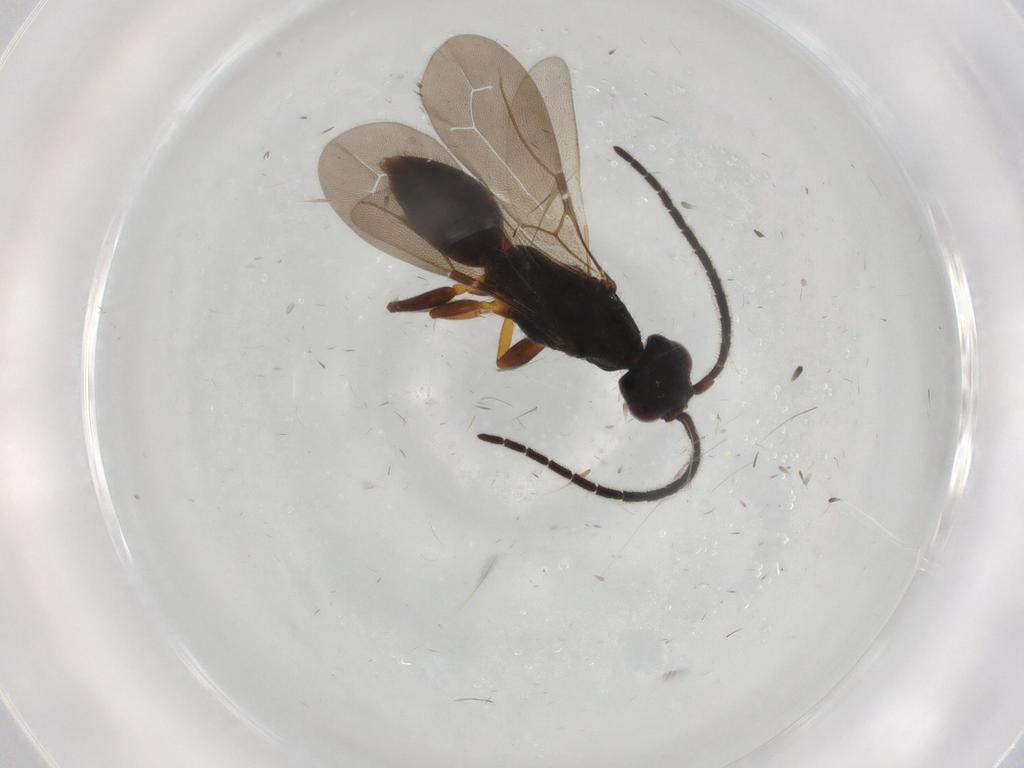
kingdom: Animalia
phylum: Arthropoda
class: Insecta
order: Hymenoptera
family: Bethylidae
